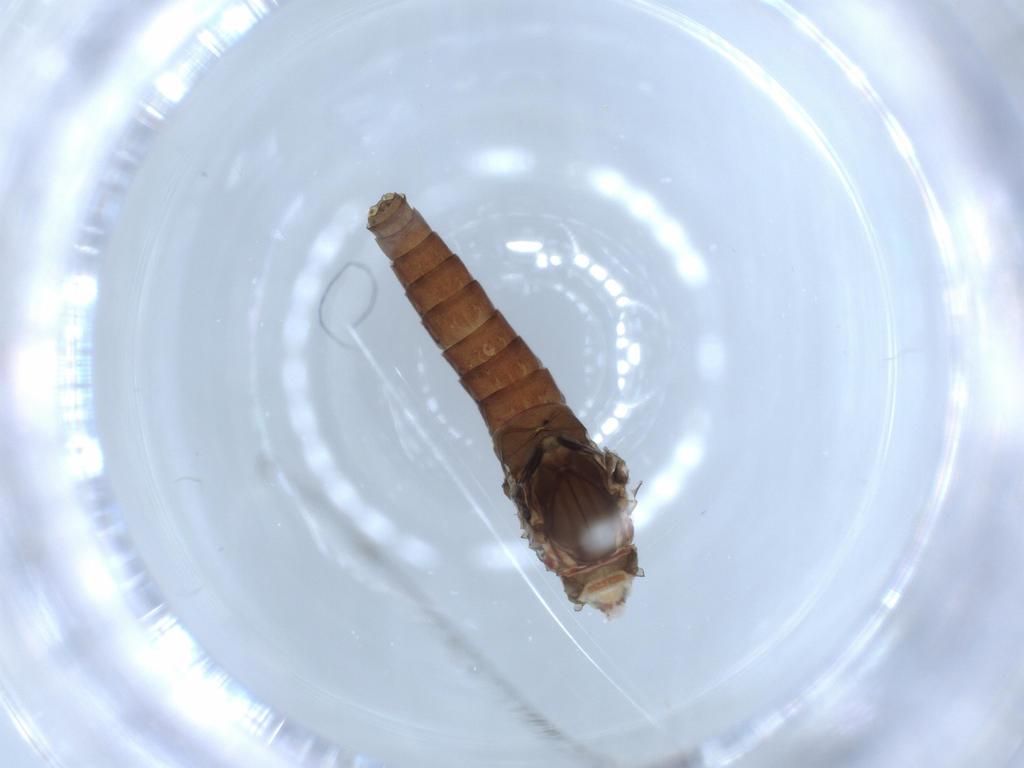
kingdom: Animalia
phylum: Arthropoda
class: Insecta
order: Ephemeroptera
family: Baetidae
